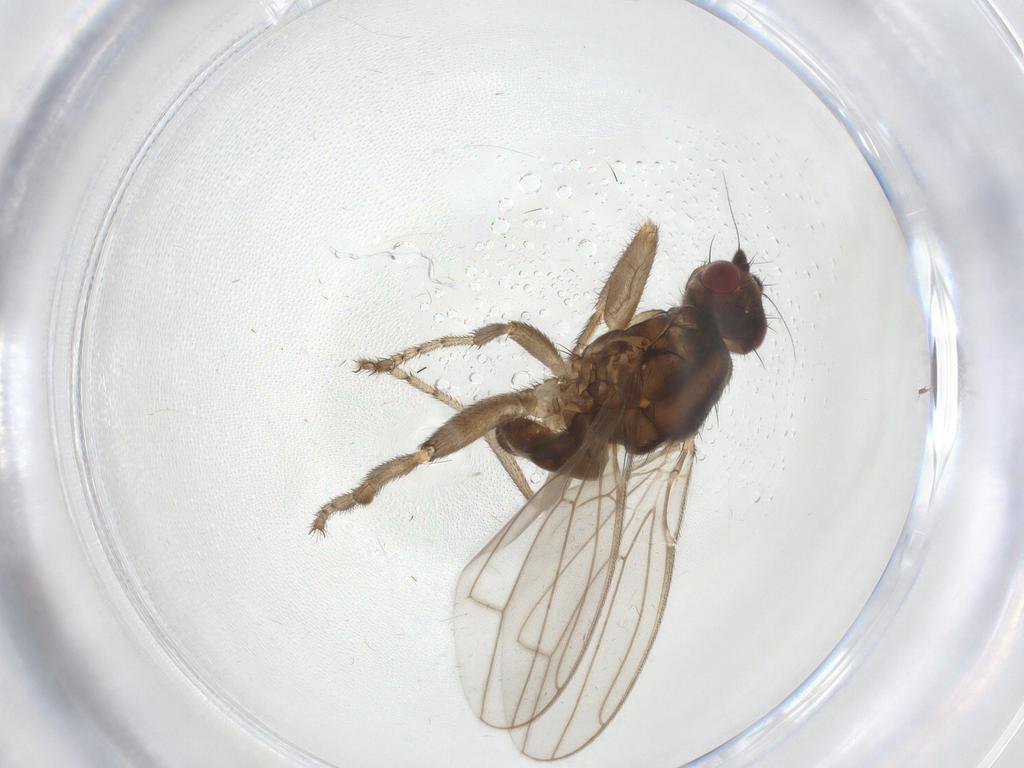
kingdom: Animalia
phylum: Arthropoda
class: Insecta
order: Diptera
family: Sphaeroceridae
